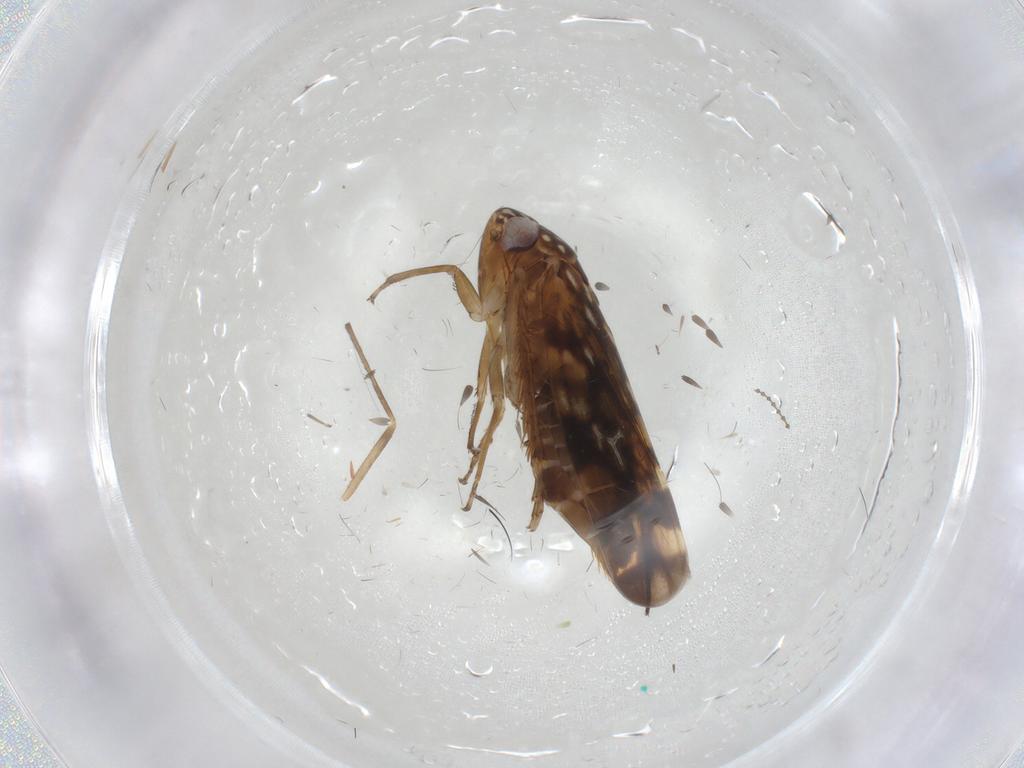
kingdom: Animalia
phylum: Arthropoda
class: Insecta
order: Hemiptera
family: Cicadellidae
